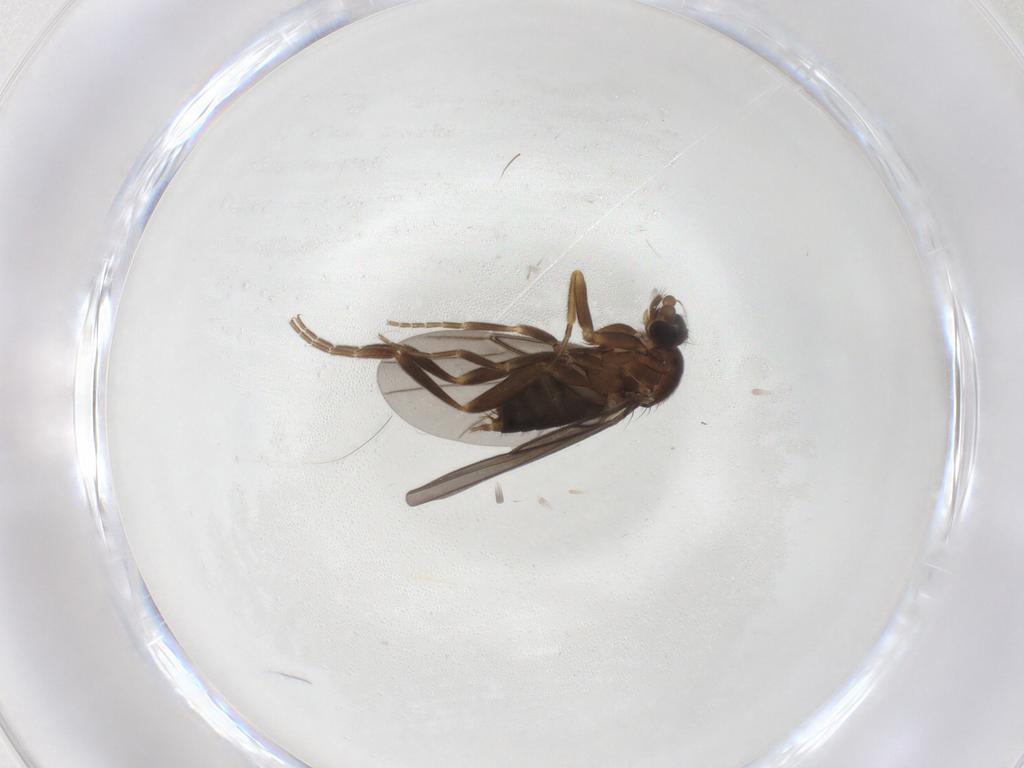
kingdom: Animalia
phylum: Arthropoda
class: Insecta
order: Diptera
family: Phoridae
